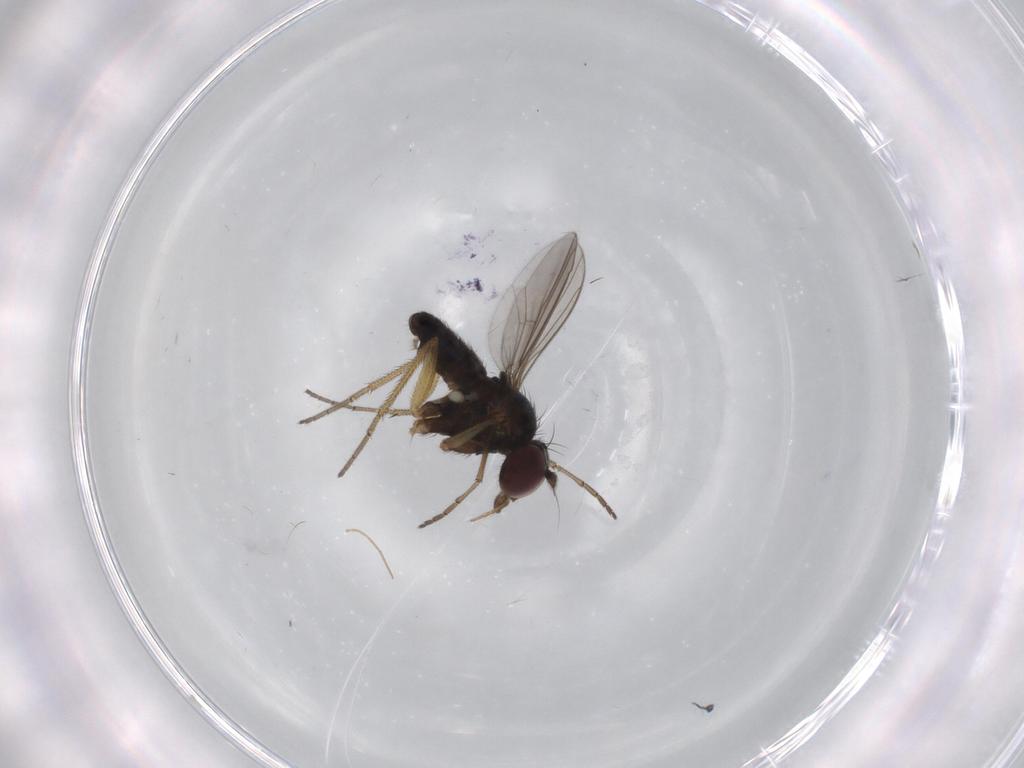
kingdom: Animalia
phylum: Arthropoda
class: Insecta
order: Diptera
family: Dolichopodidae
